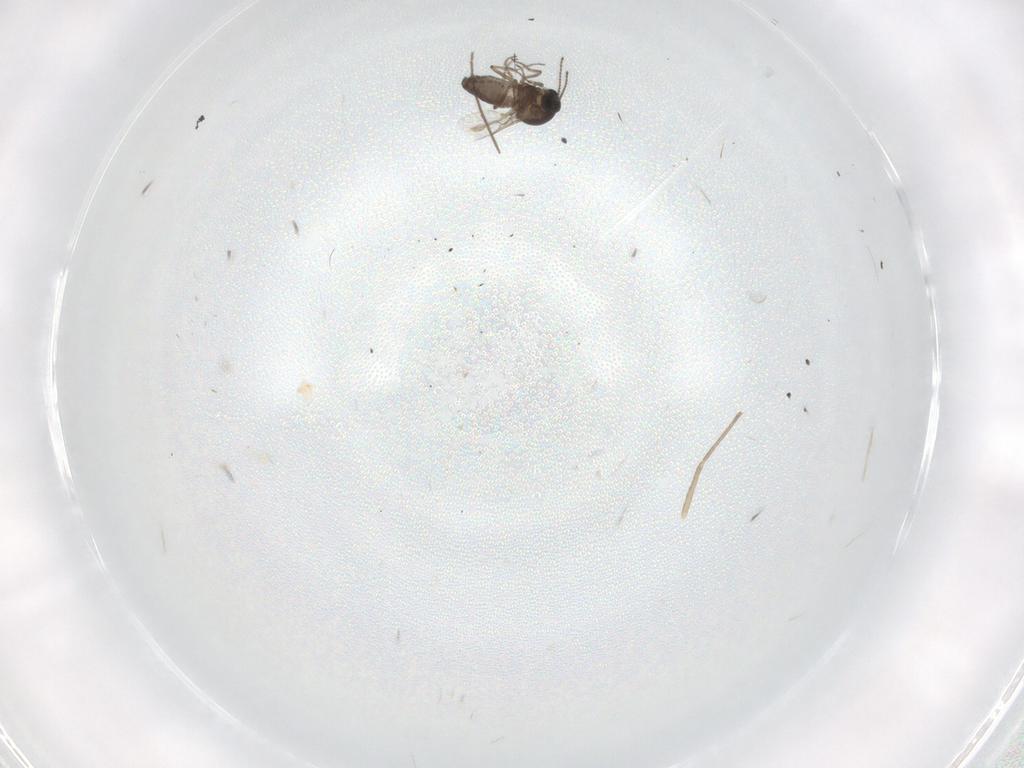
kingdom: Animalia
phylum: Arthropoda
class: Insecta
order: Diptera
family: Chironomidae
